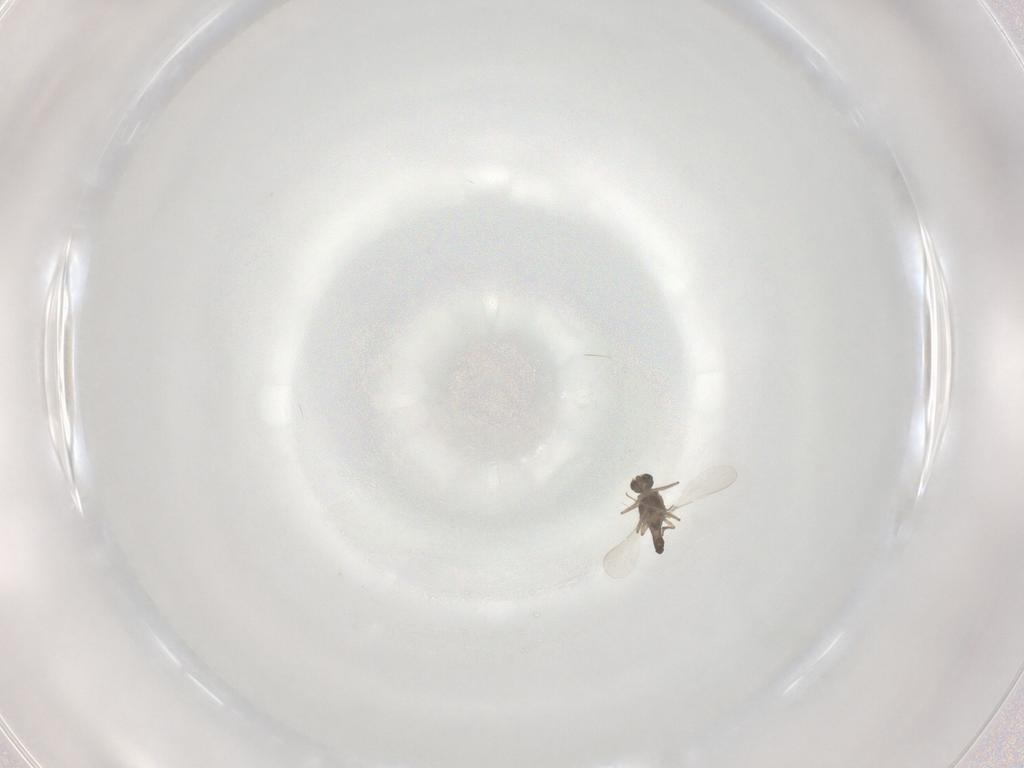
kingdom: Animalia
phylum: Arthropoda
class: Insecta
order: Diptera
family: Chironomidae
